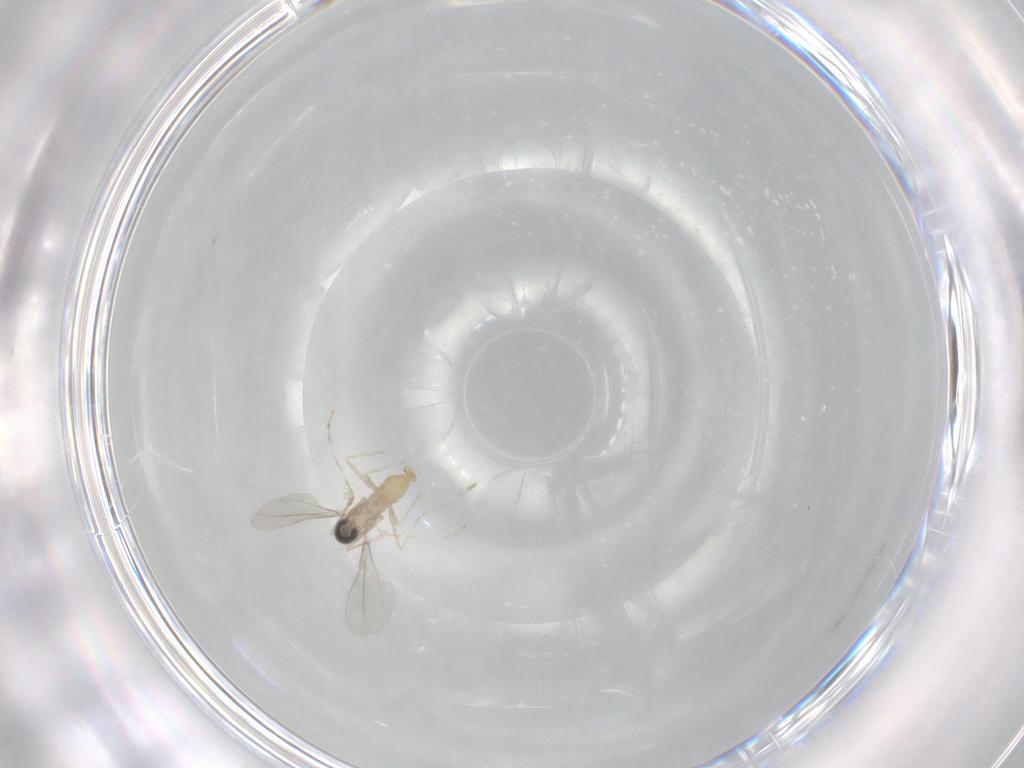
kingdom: Animalia
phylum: Arthropoda
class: Insecta
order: Diptera
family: Cecidomyiidae
